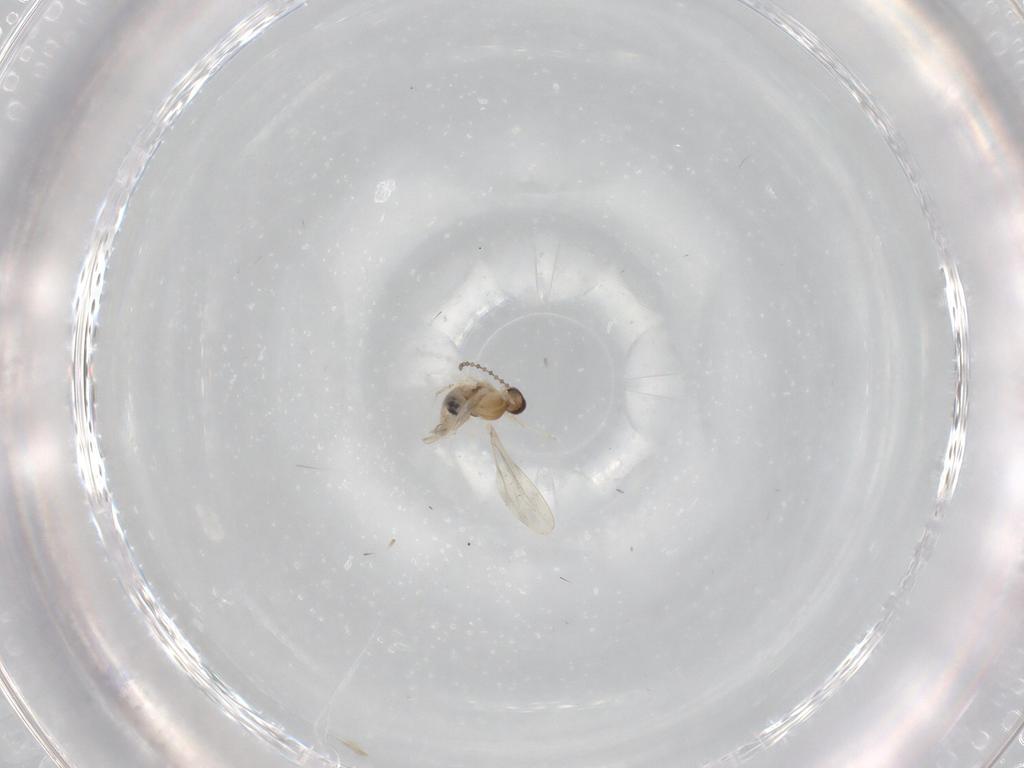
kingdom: Animalia
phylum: Arthropoda
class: Insecta
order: Diptera
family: Cecidomyiidae
